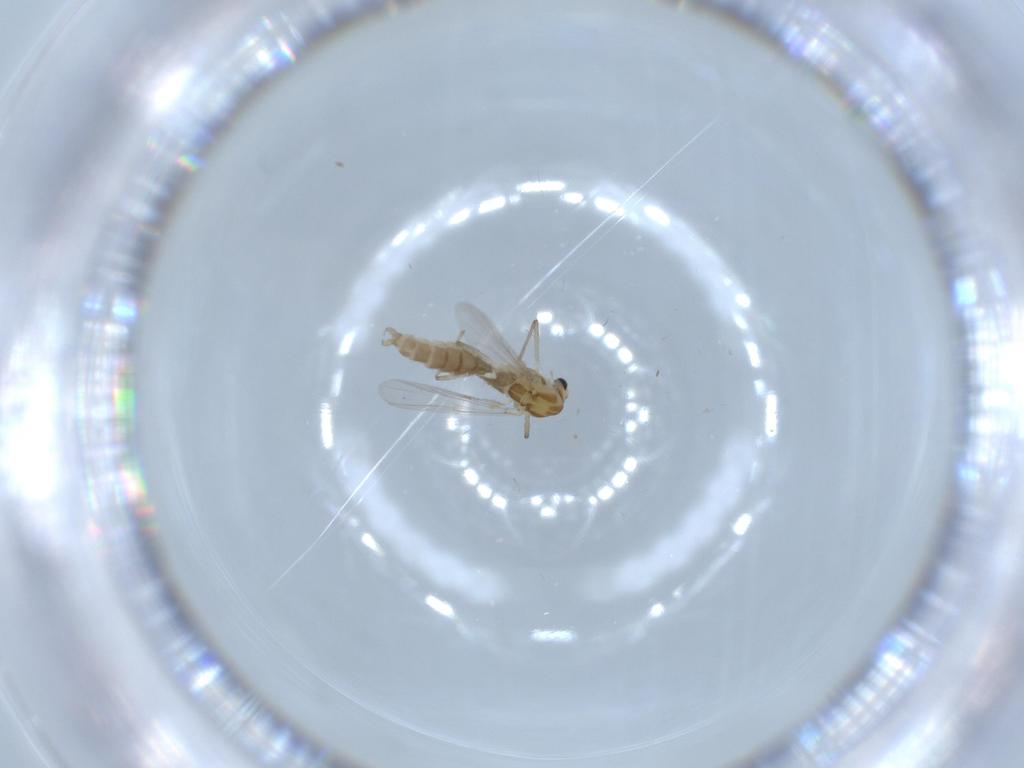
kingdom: Animalia
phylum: Arthropoda
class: Insecta
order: Diptera
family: Chironomidae
